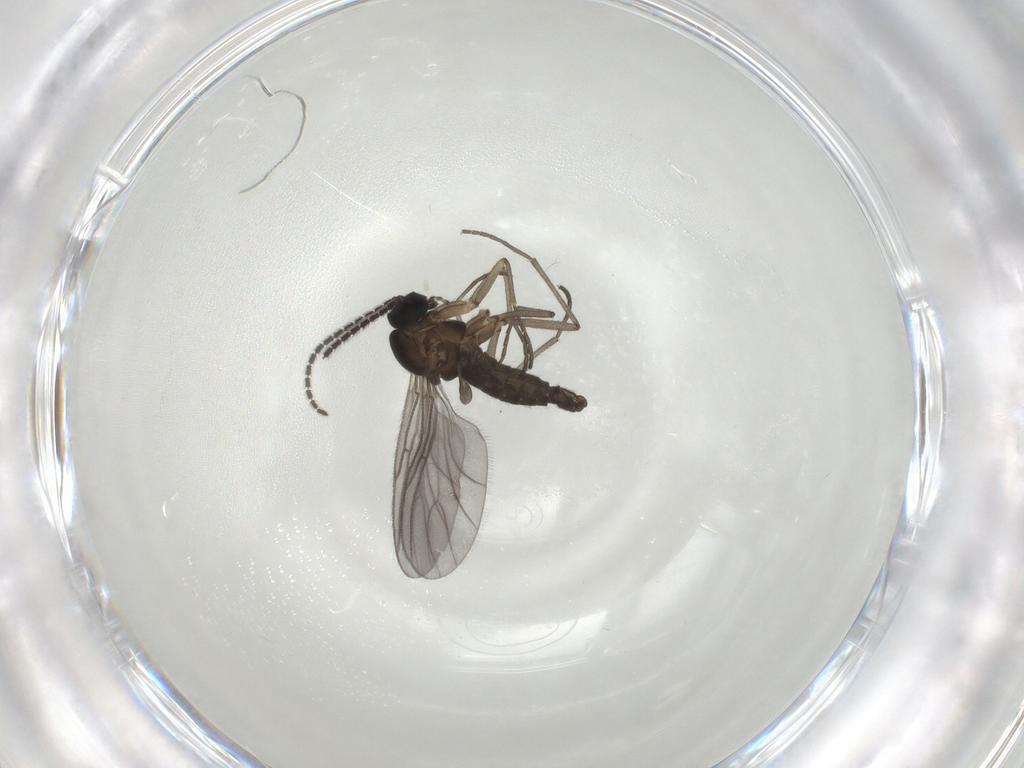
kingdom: Animalia
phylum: Arthropoda
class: Insecta
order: Diptera
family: Sciaridae
